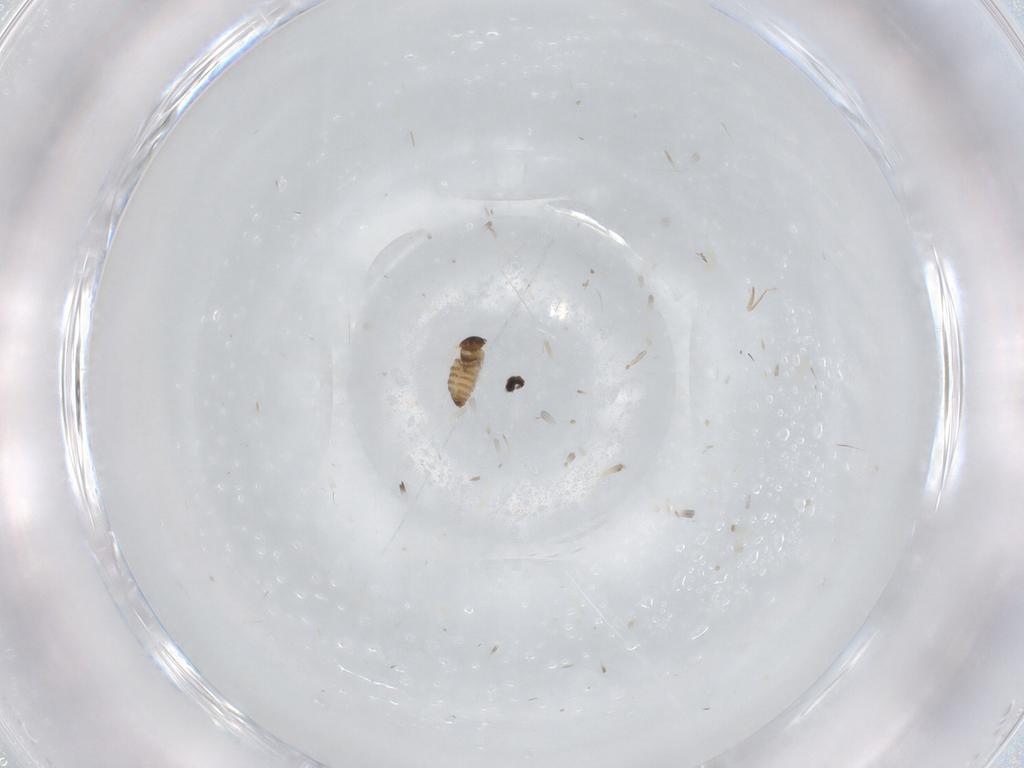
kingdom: Animalia
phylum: Arthropoda
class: Insecta
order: Diptera
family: Cecidomyiidae
